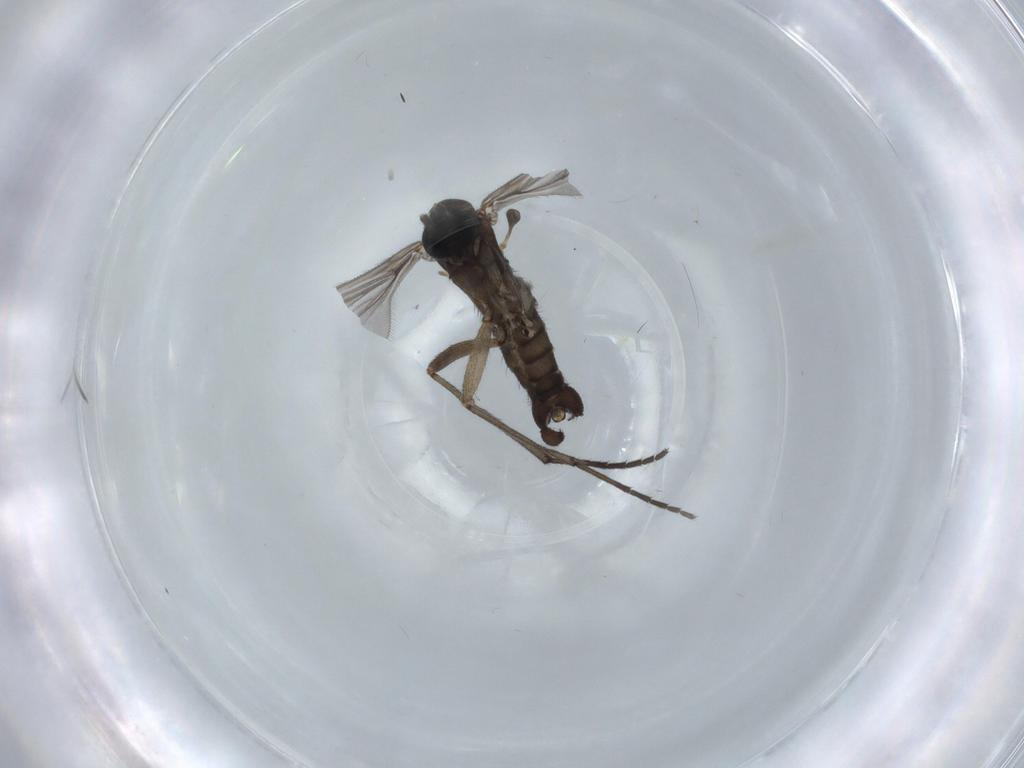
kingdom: Animalia
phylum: Arthropoda
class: Insecta
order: Diptera
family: Sciaridae
